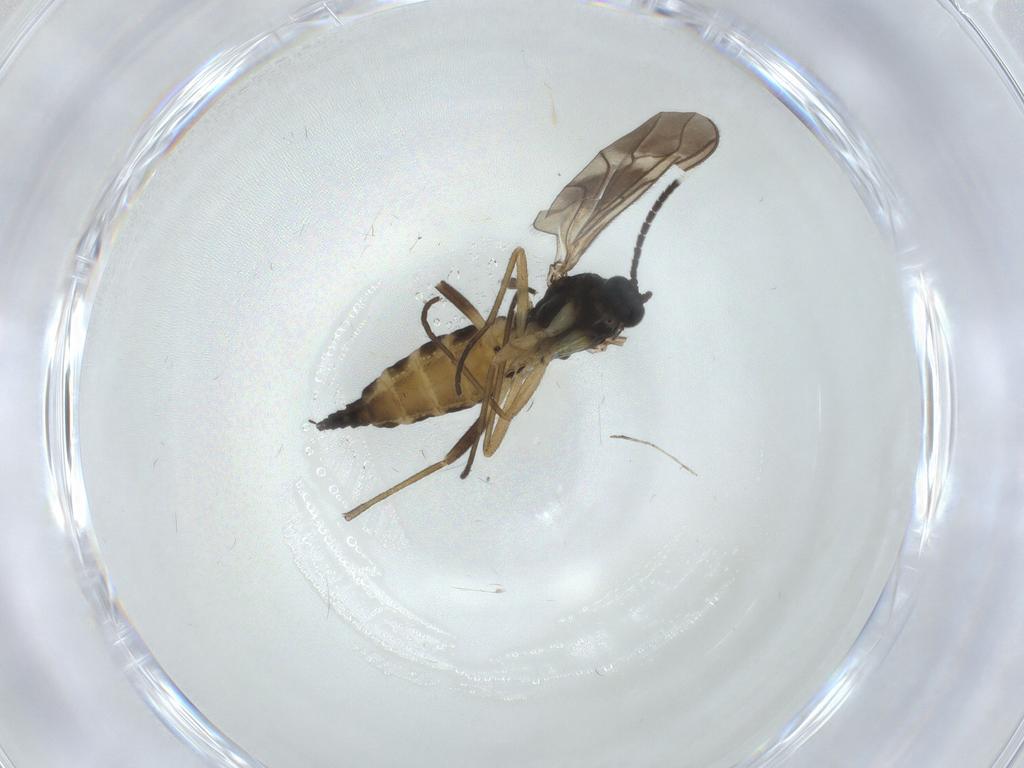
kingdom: Animalia
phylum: Arthropoda
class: Insecta
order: Diptera
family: Sciaridae
